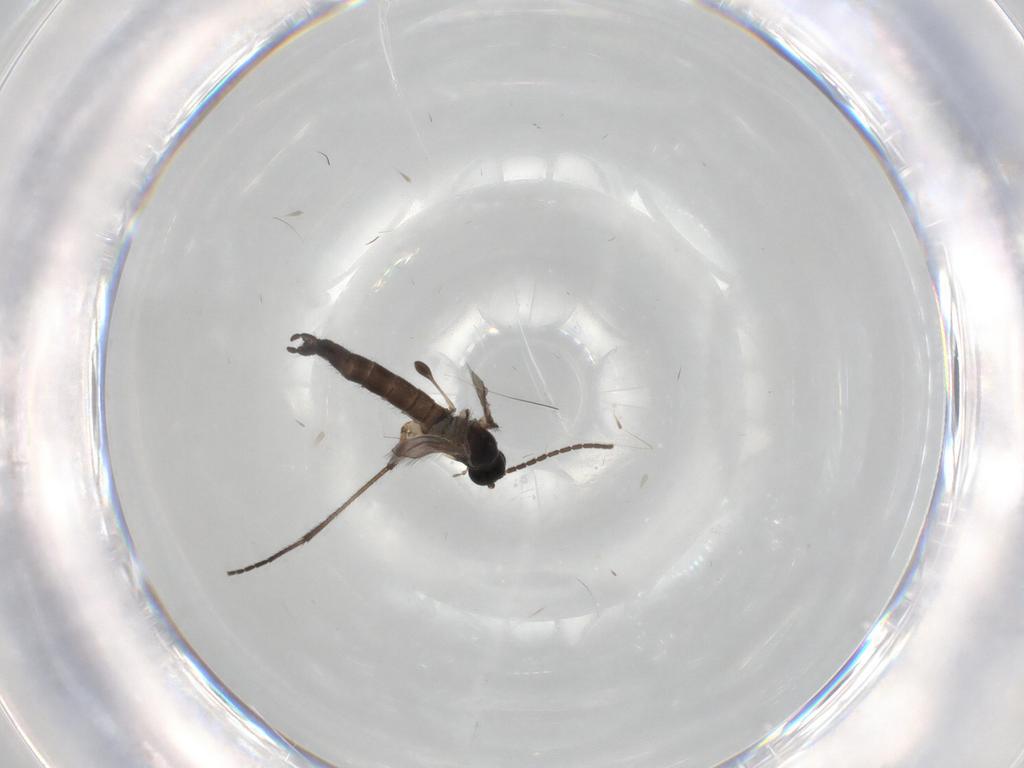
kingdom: Animalia
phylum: Arthropoda
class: Insecta
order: Diptera
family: Sciaridae
